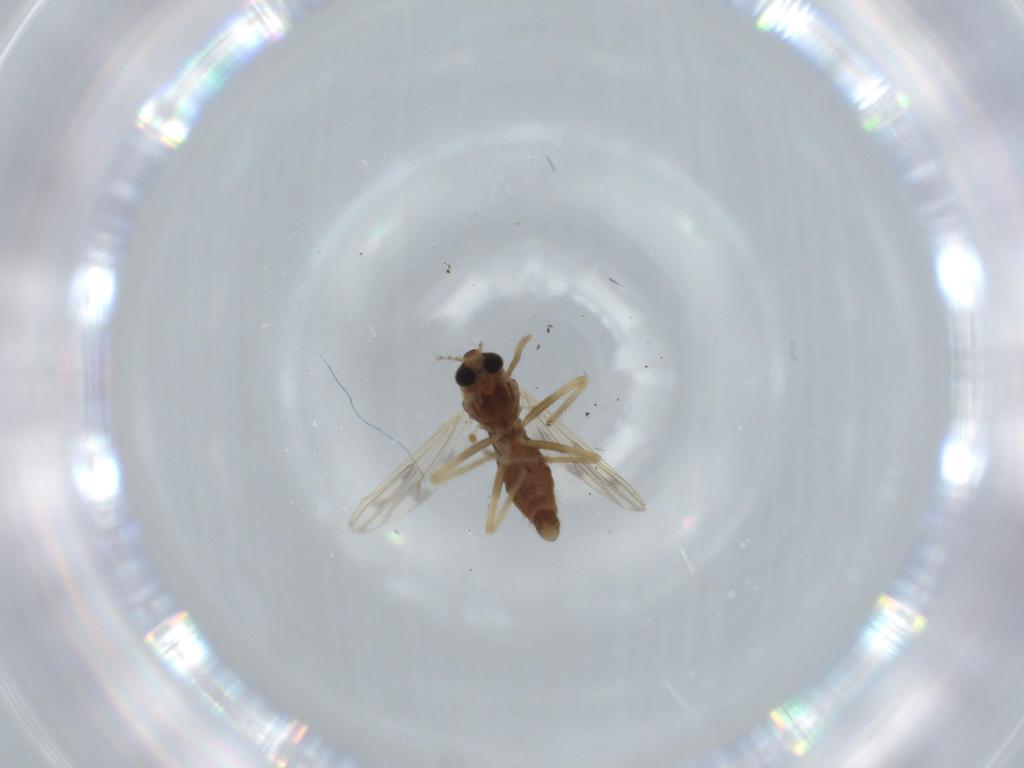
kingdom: Animalia
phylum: Arthropoda
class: Insecta
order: Diptera
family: Chironomidae
